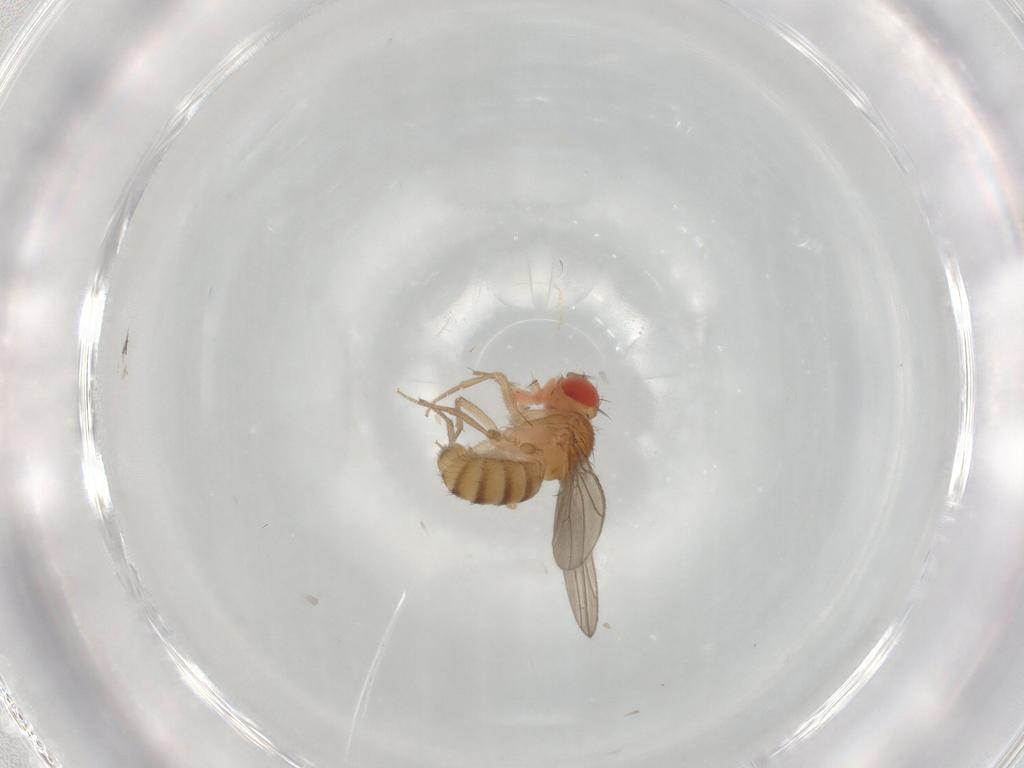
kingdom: Animalia
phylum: Arthropoda
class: Insecta
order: Diptera
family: Drosophilidae
